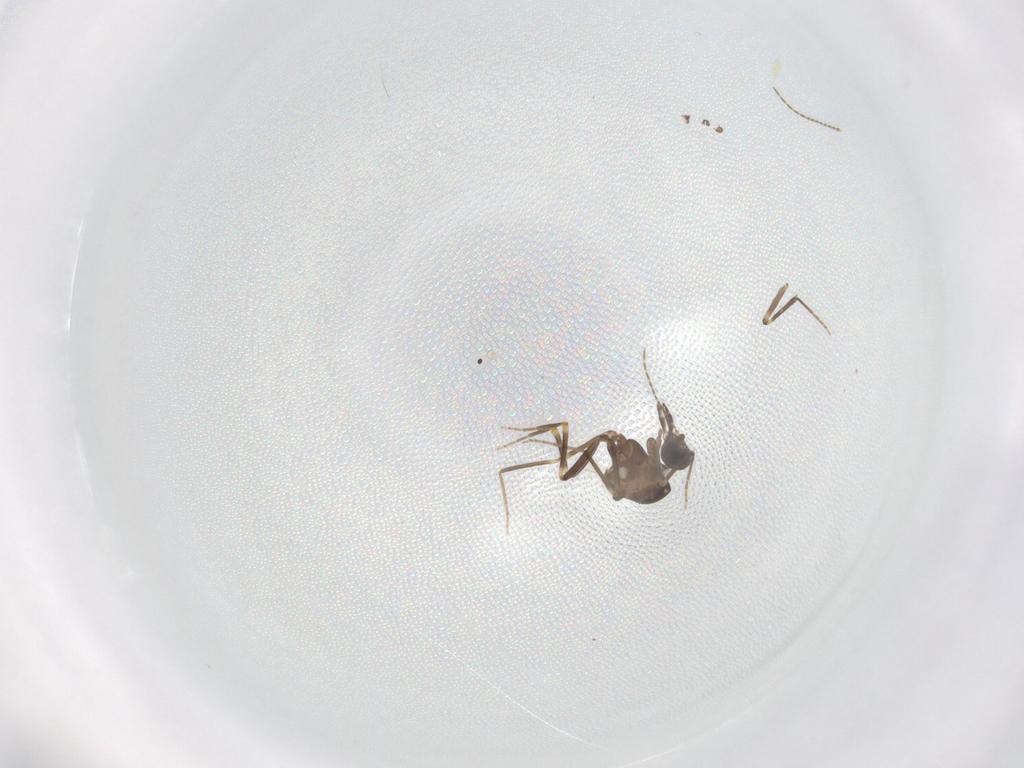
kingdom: Animalia
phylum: Arthropoda
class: Insecta
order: Diptera
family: Ceratopogonidae
